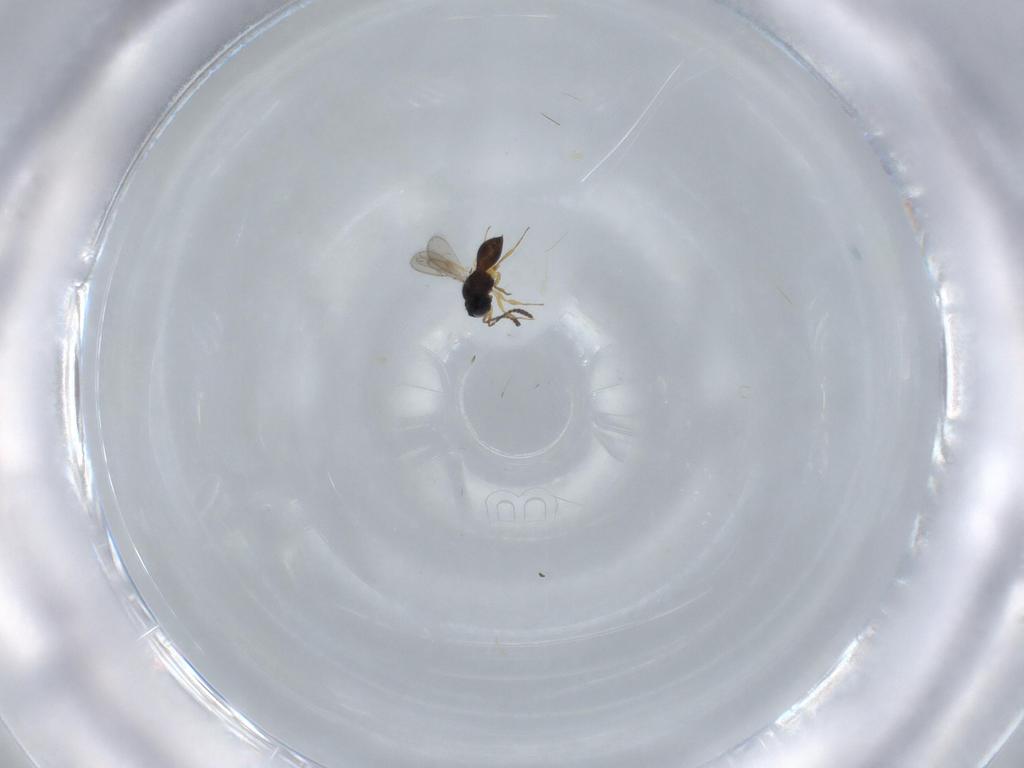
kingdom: Animalia
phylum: Arthropoda
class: Insecta
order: Hymenoptera
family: Scelionidae
